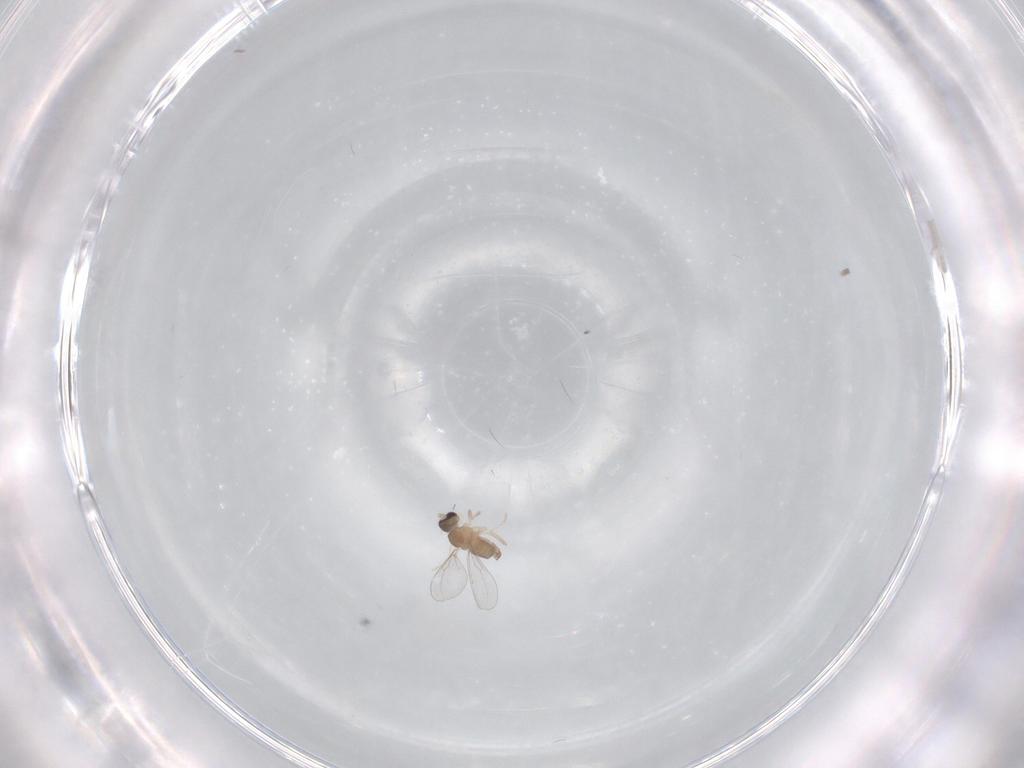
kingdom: Animalia
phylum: Arthropoda
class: Insecta
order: Diptera
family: Cecidomyiidae
